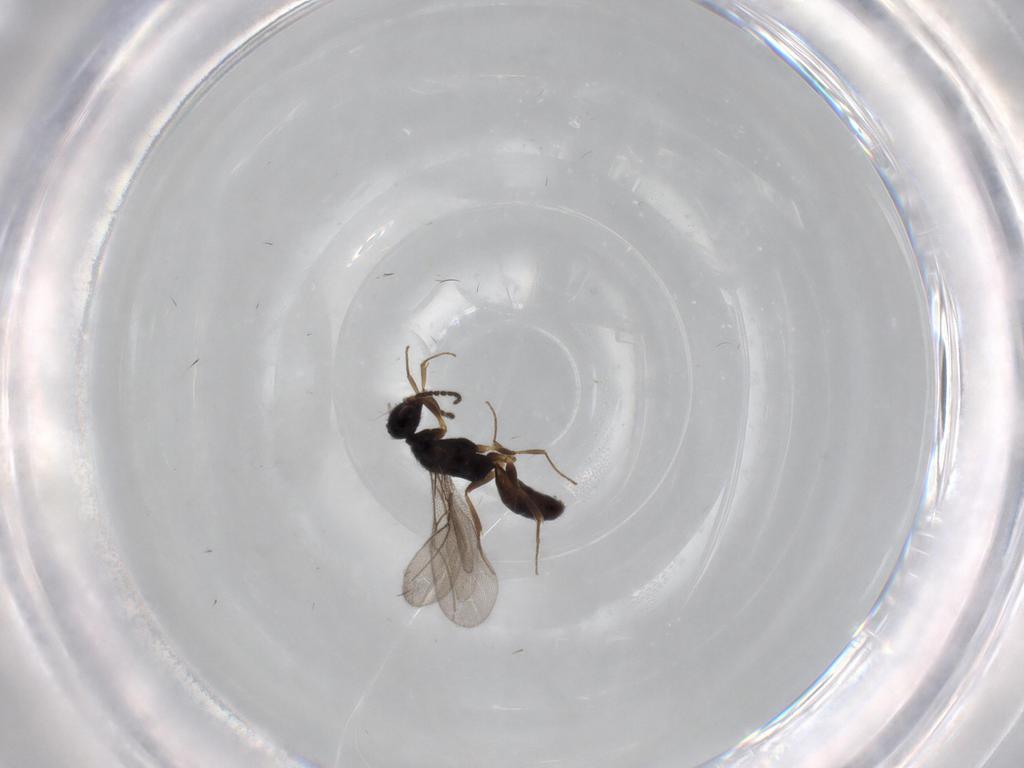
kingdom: Animalia
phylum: Arthropoda
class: Insecta
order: Hymenoptera
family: Bethylidae
